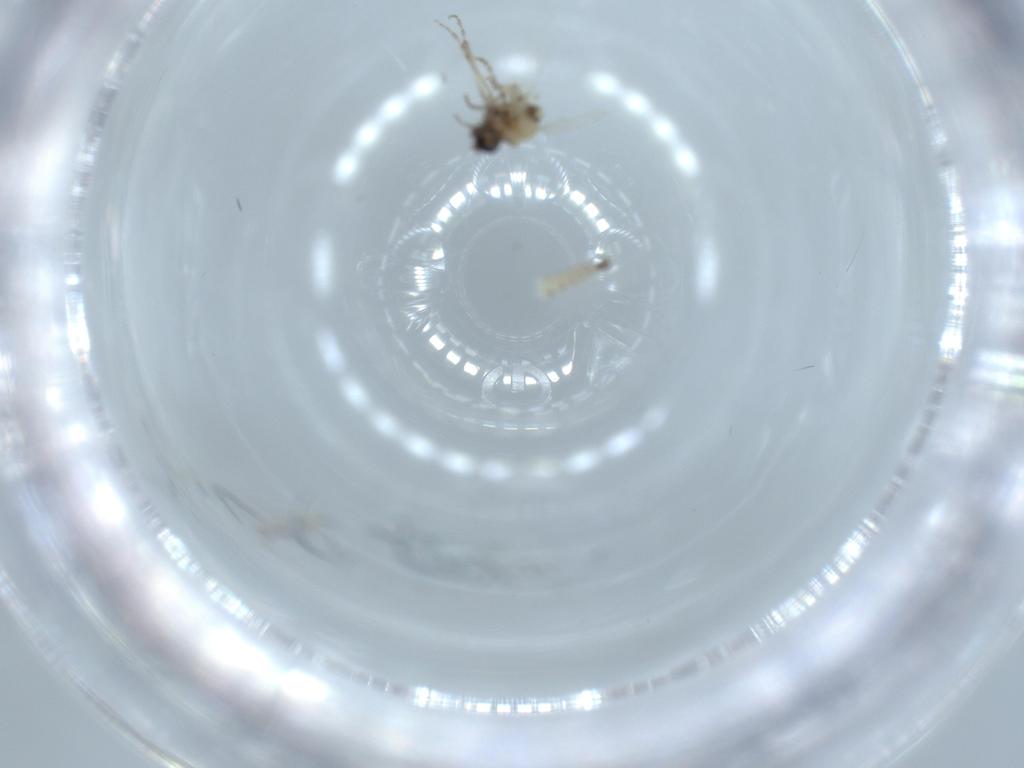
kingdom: Animalia
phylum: Arthropoda
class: Insecta
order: Diptera
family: Ceratopogonidae
